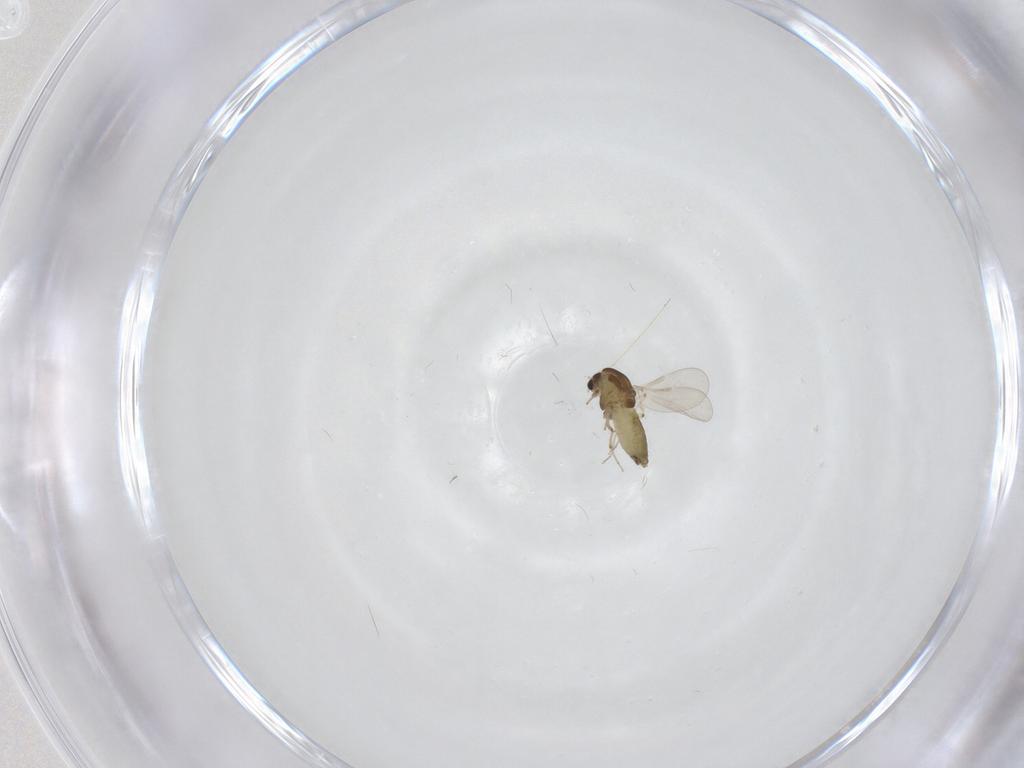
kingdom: Animalia
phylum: Arthropoda
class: Insecta
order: Diptera
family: Chironomidae
